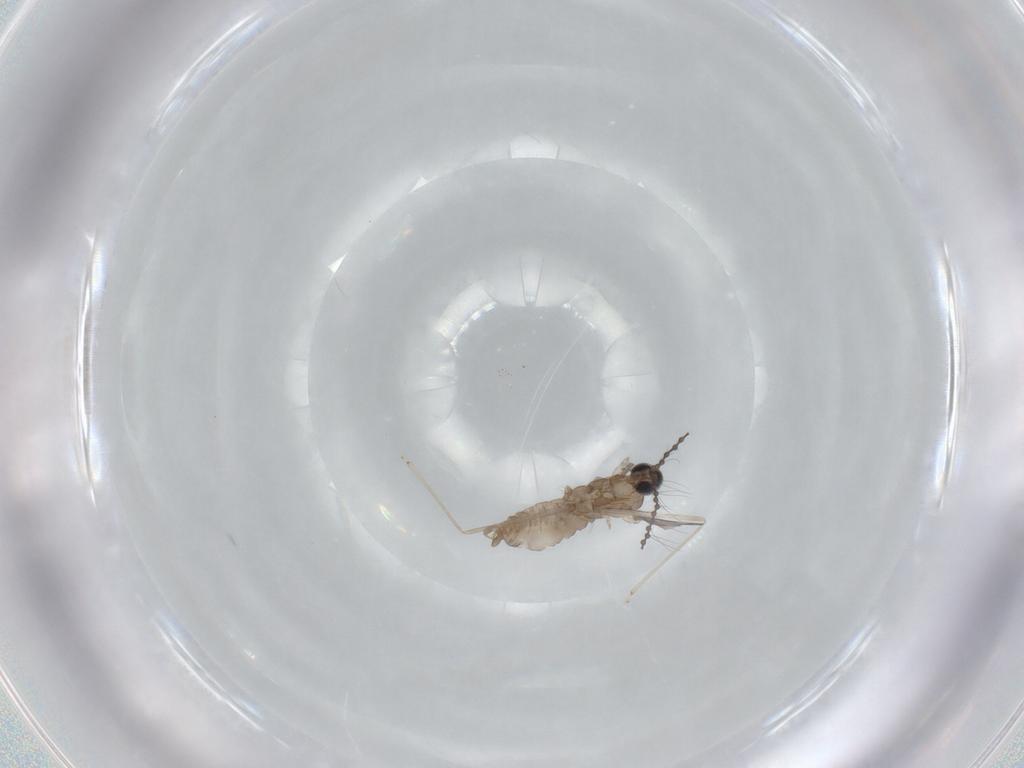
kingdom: Animalia
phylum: Arthropoda
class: Insecta
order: Diptera
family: Cecidomyiidae
